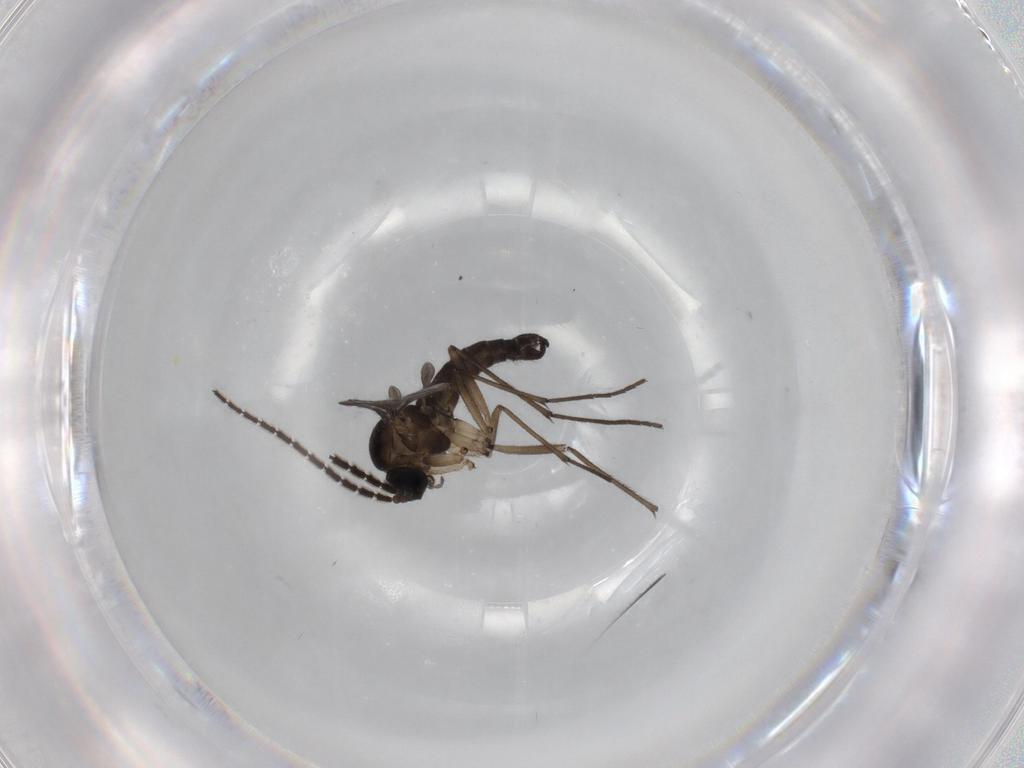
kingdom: Animalia
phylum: Arthropoda
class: Insecta
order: Diptera
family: Sciaridae
